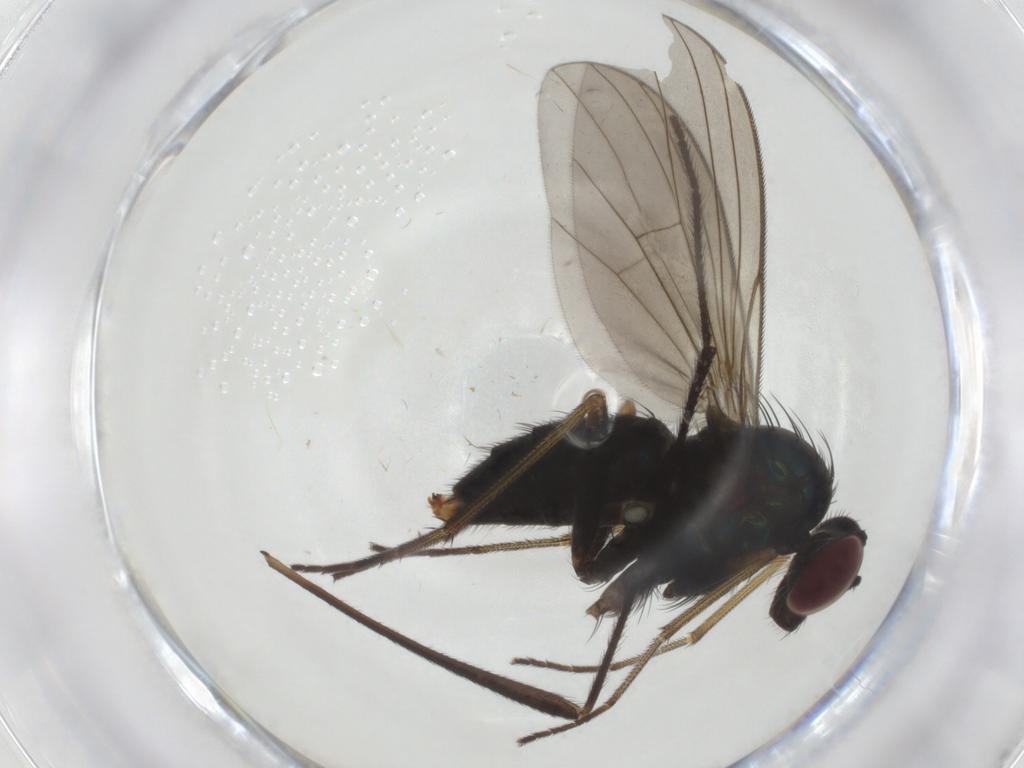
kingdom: Animalia
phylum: Arthropoda
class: Insecta
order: Diptera
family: Dolichopodidae
